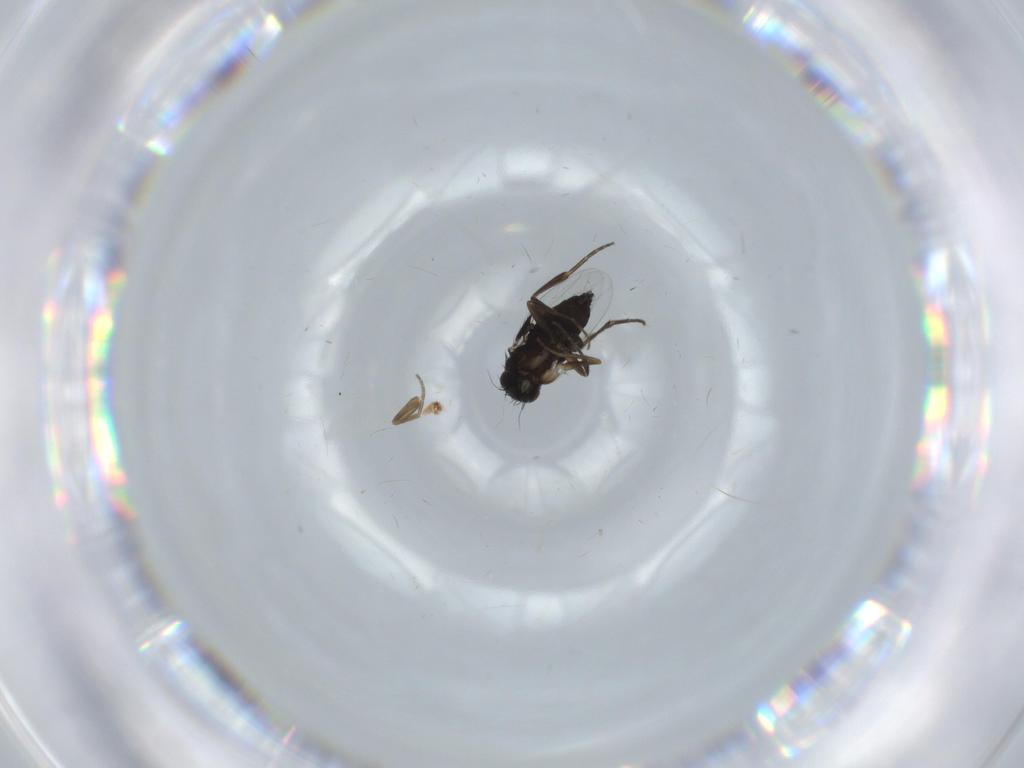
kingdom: Animalia
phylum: Arthropoda
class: Insecta
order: Diptera
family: Phoridae
